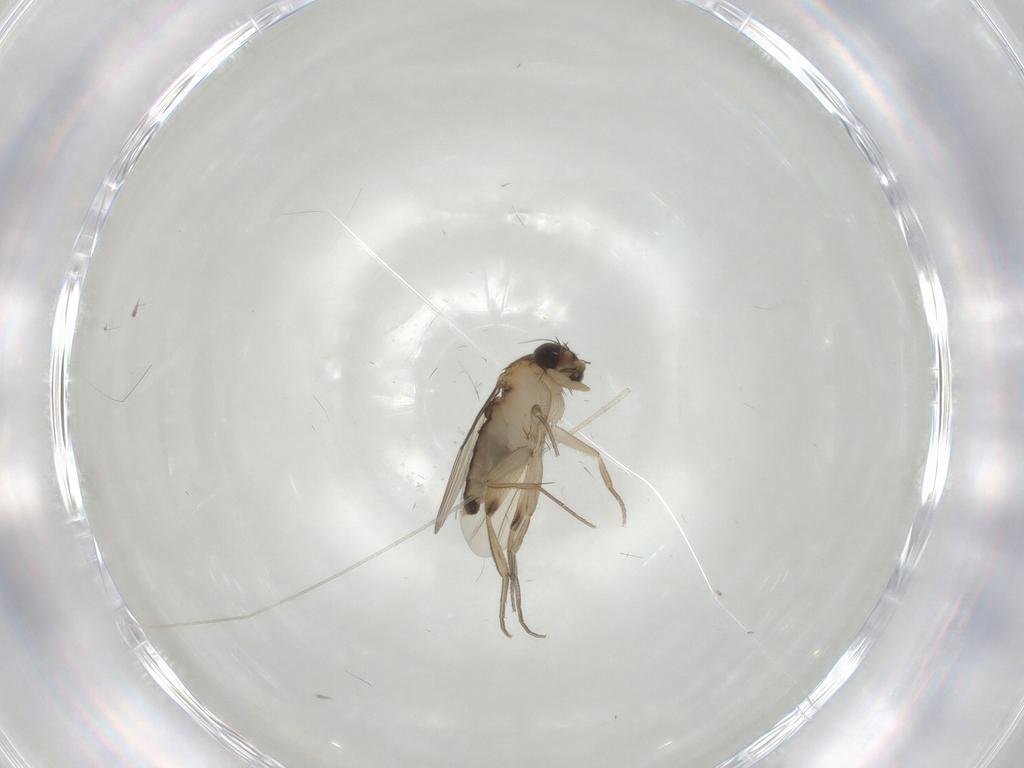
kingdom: Animalia
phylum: Arthropoda
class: Insecta
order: Diptera
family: Phoridae
